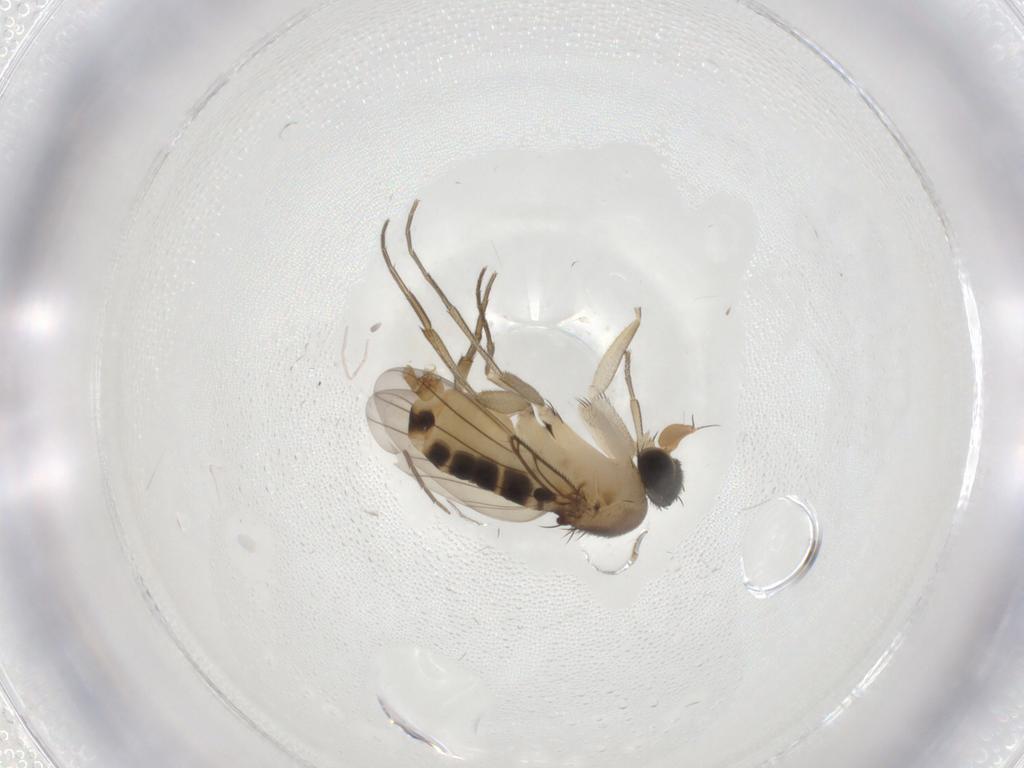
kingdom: Animalia
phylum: Arthropoda
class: Insecta
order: Diptera
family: Phoridae
